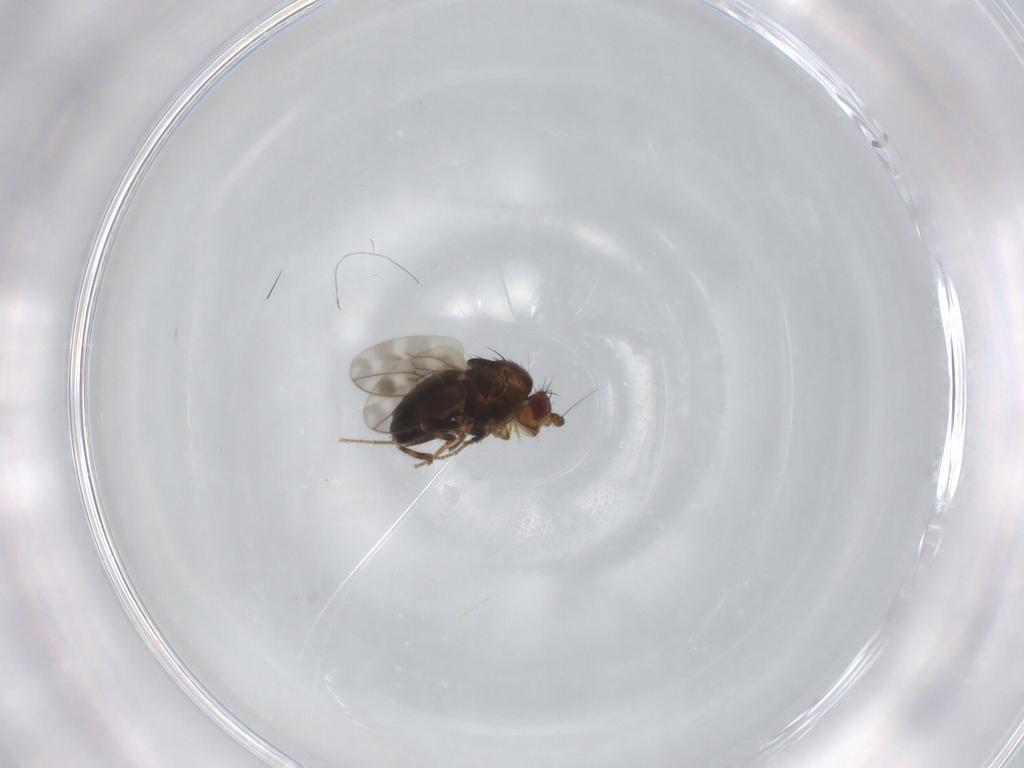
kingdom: Animalia
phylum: Arthropoda
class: Insecta
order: Diptera
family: Sphaeroceridae
